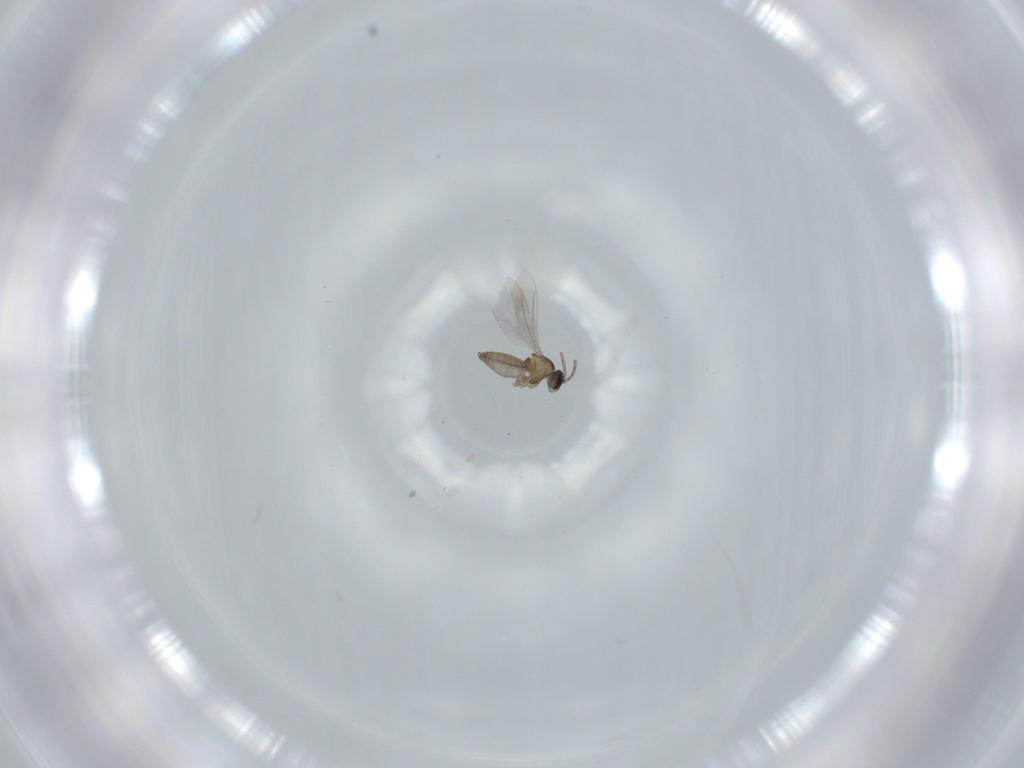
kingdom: Animalia
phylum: Arthropoda
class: Insecta
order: Diptera
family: Cecidomyiidae
